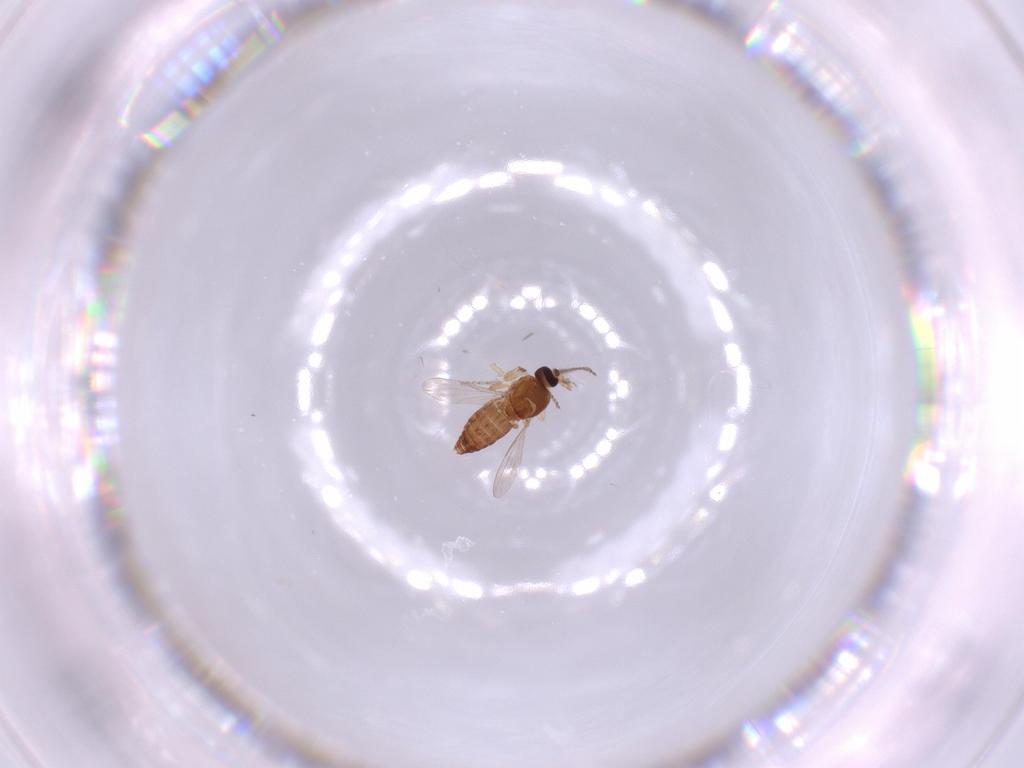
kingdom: Animalia
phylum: Arthropoda
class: Insecta
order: Diptera
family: Ceratopogonidae
